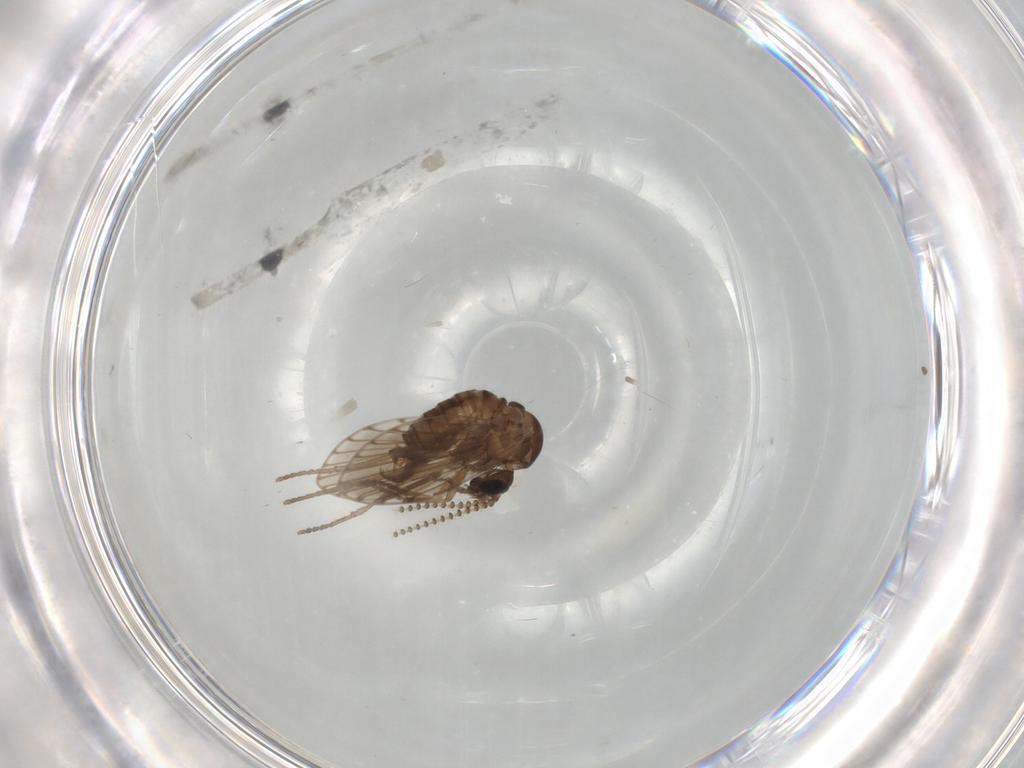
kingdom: Animalia
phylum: Arthropoda
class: Insecta
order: Diptera
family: Psychodidae
